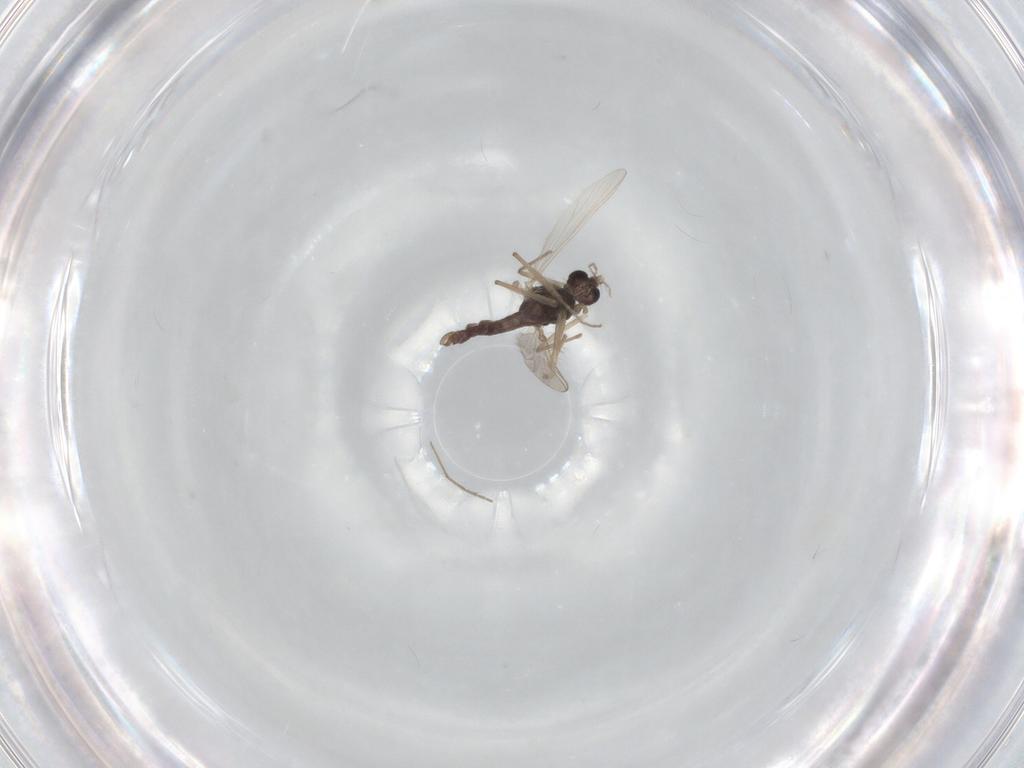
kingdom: Animalia
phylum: Arthropoda
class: Insecta
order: Diptera
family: Chironomidae
